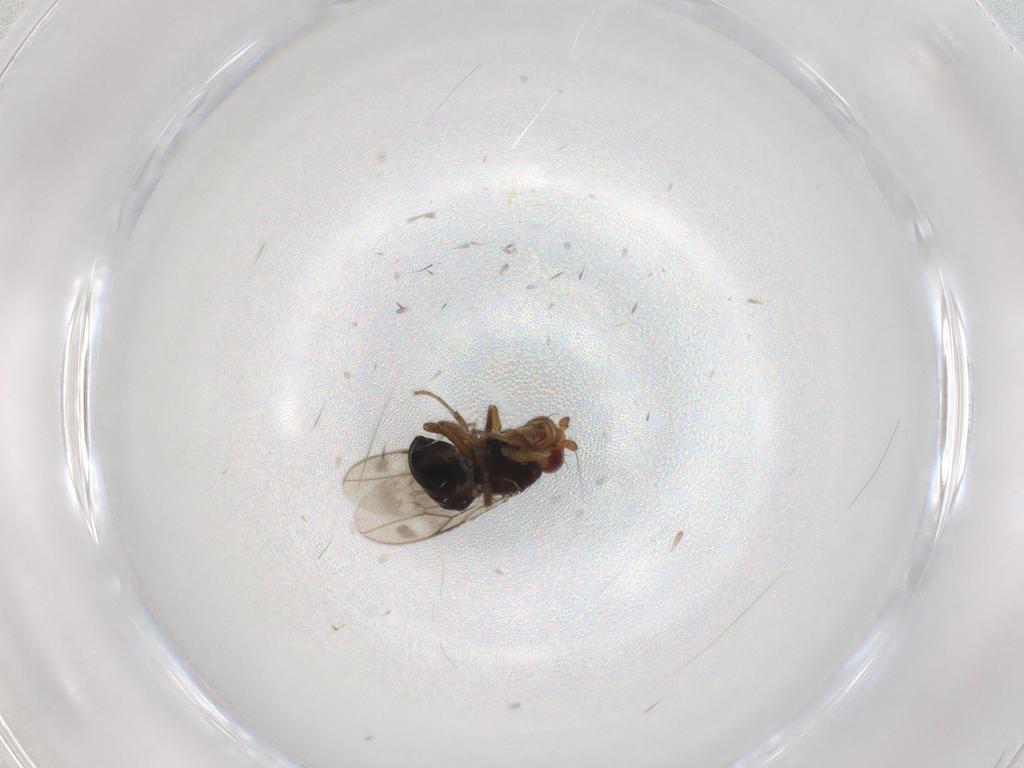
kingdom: Animalia
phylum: Arthropoda
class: Insecta
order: Diptera
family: Sphaeroceridae
